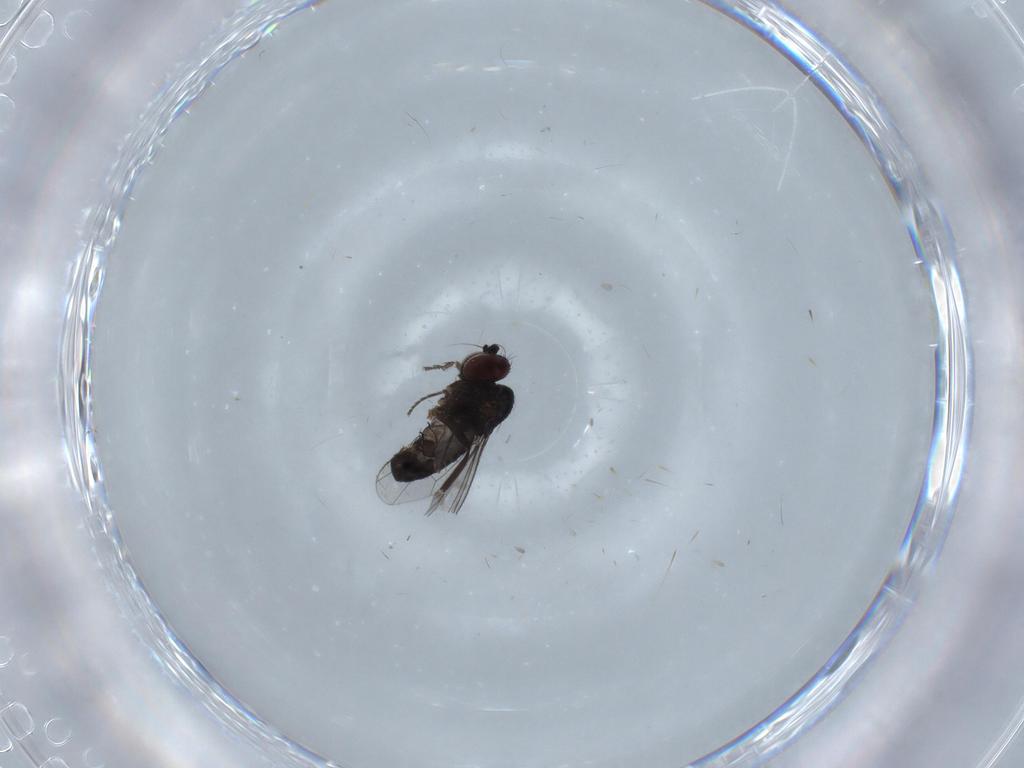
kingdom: Animalia
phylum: Arthropoda
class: Insecta
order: Diptera
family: Cecidomyiidae
